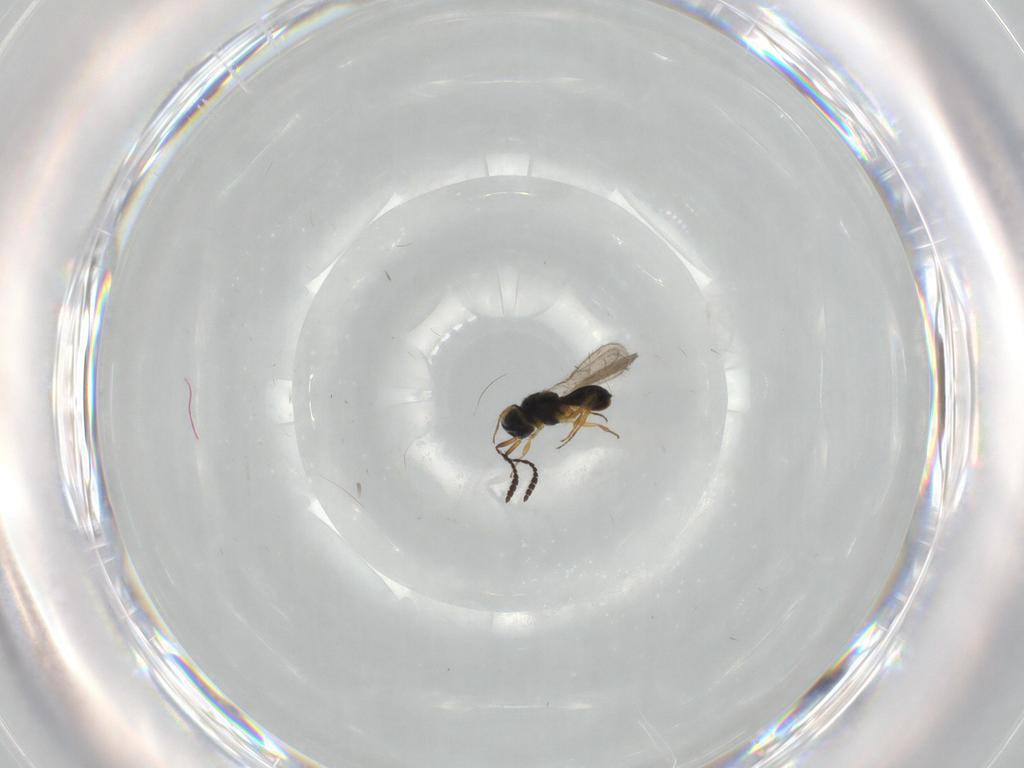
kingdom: Animalia
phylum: Arthropoda
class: Insecta
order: Hymenoptera
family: Scelionidae
